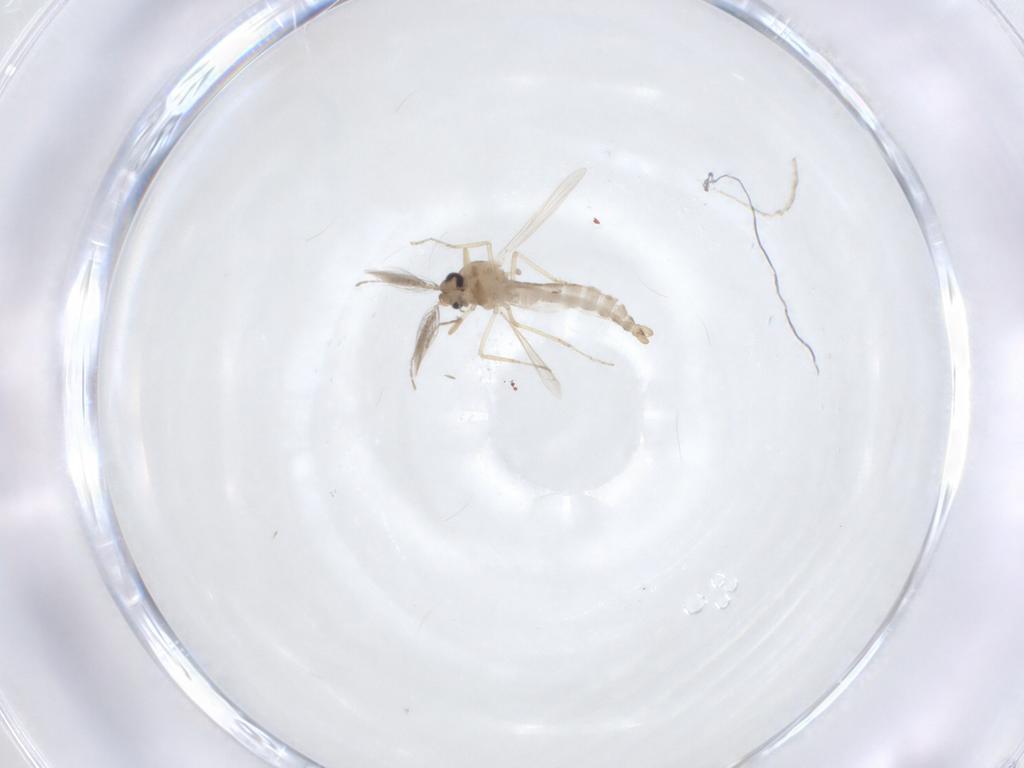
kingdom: Animalia
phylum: Arthropoda
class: Insecta
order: Diptera
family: Ceratopogonidae
